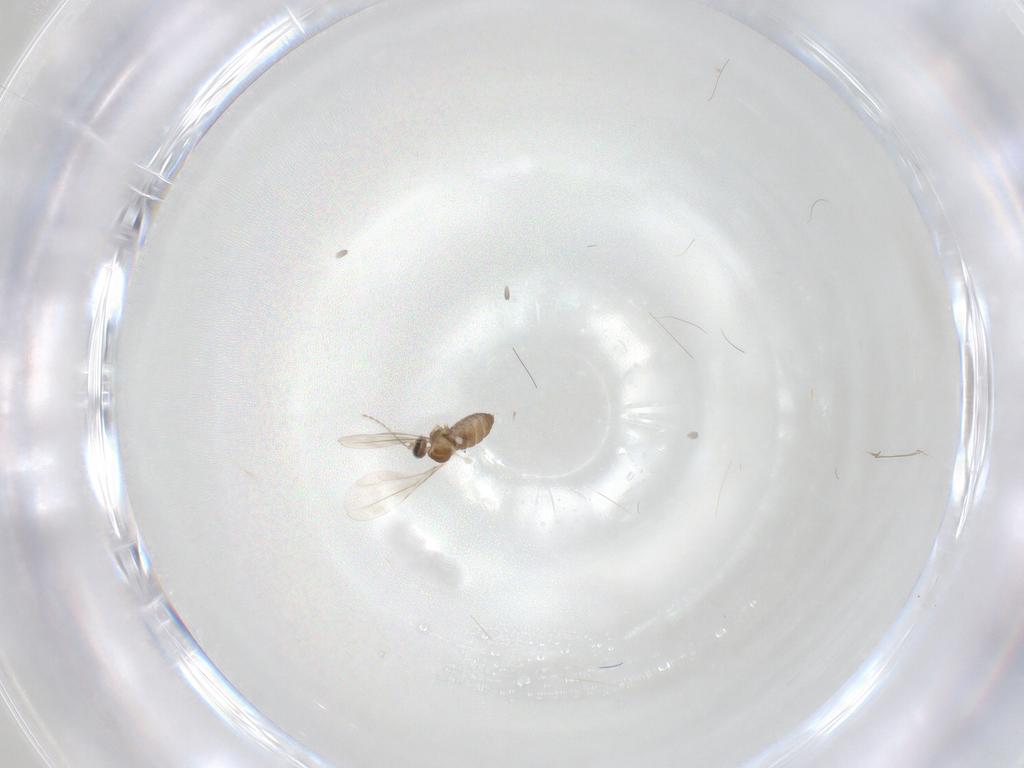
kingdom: Animalia
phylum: Arthropoda
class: Insecta
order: Diptera
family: Cecidomyiidae
